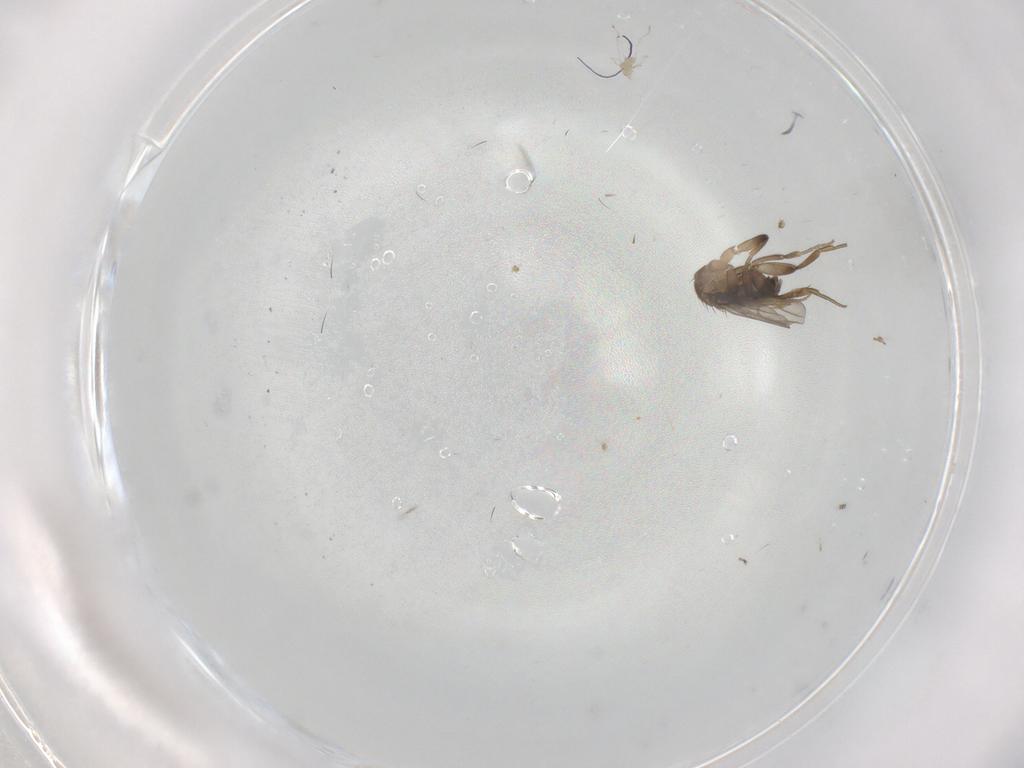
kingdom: Animalia
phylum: Arthropoda
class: Insecta
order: Diptera
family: Cecidomyiidae
